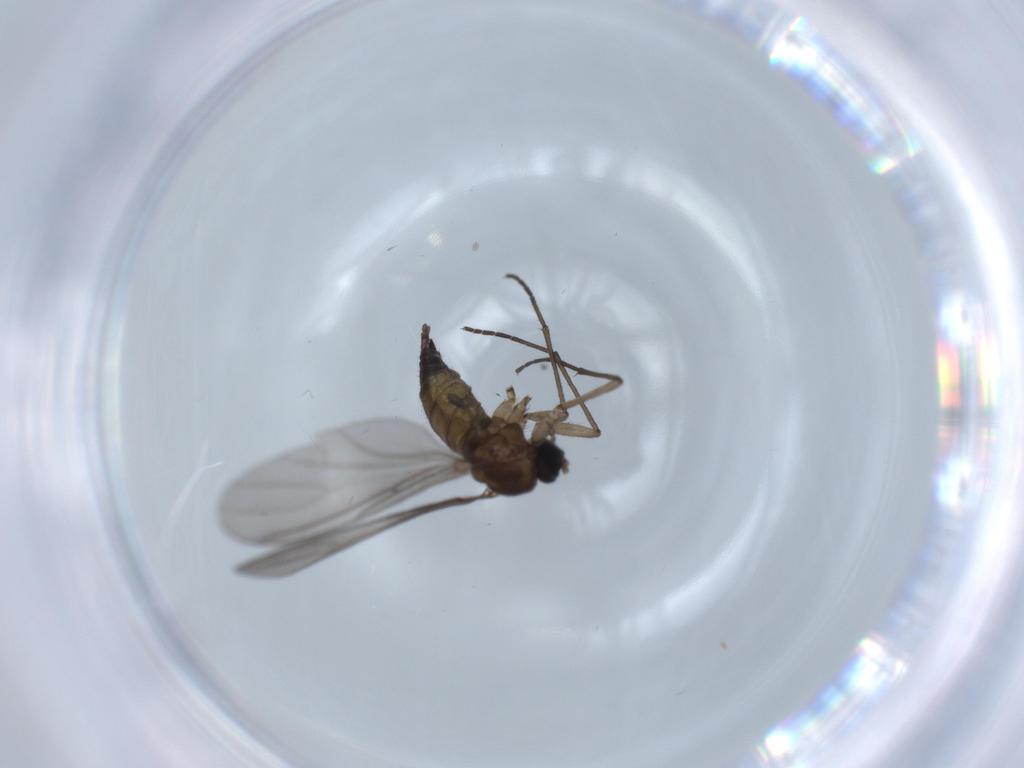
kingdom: Animalia
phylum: Arthropoda
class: Insecta
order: Diptera
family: Sciaridae
